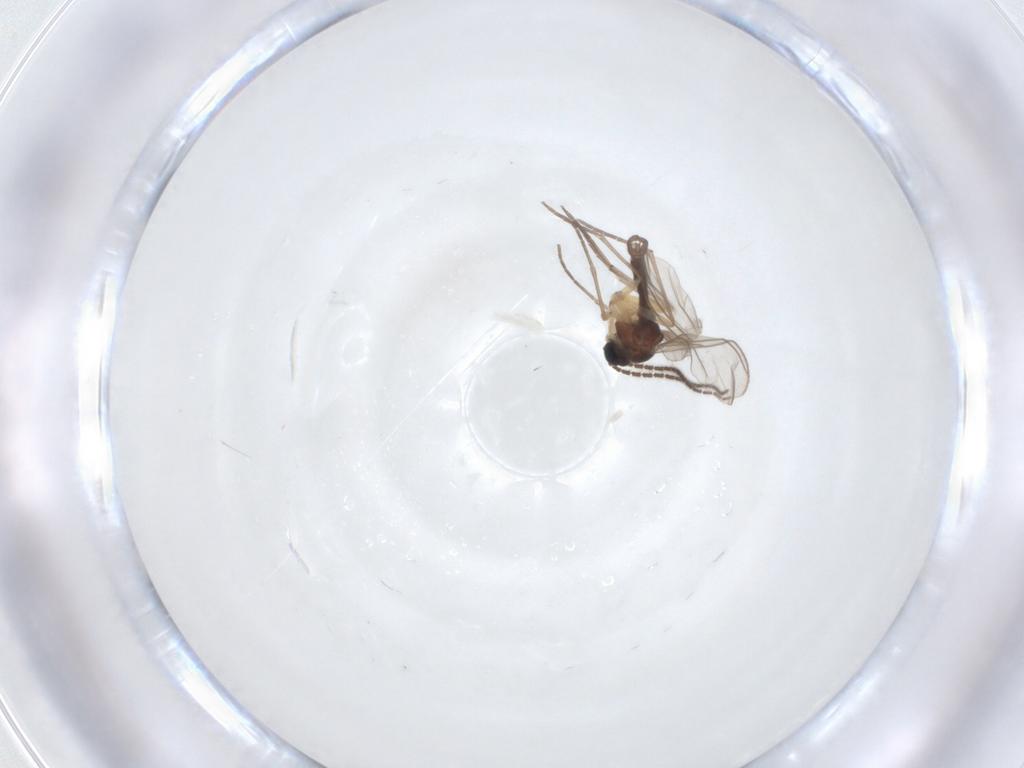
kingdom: Animalia
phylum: Arthropoda
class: Insecta
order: Diptera
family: Sciaridae
